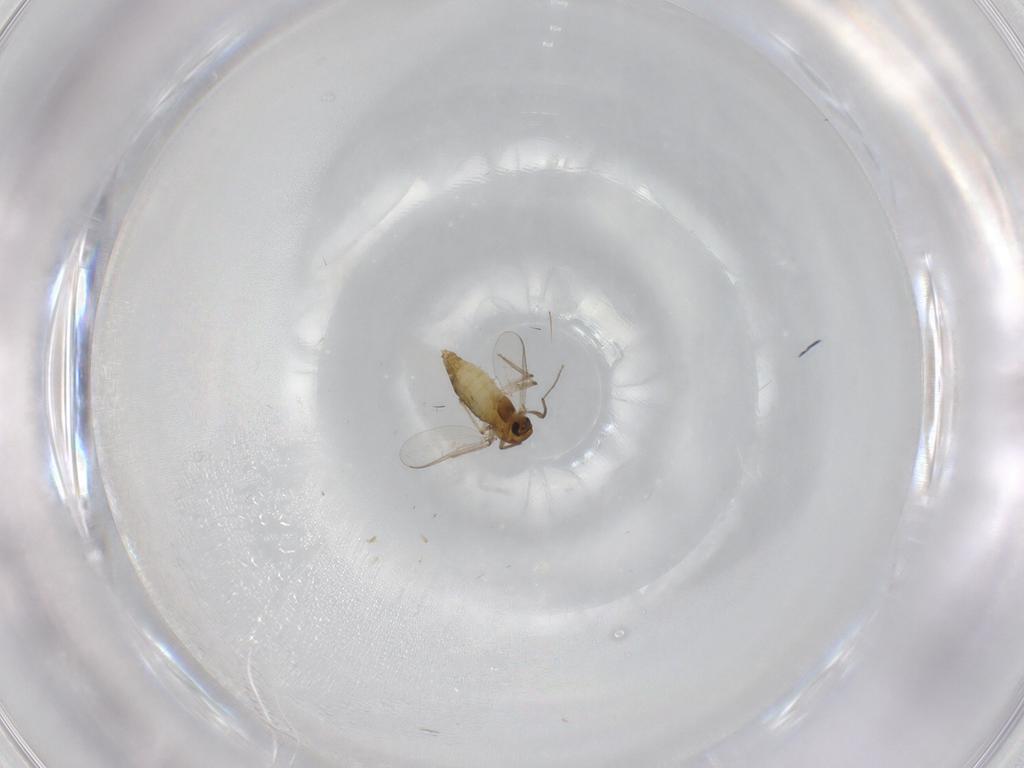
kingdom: Animalia
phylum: Arthropoda
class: Insecta
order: Diptera
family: Chironomidae
